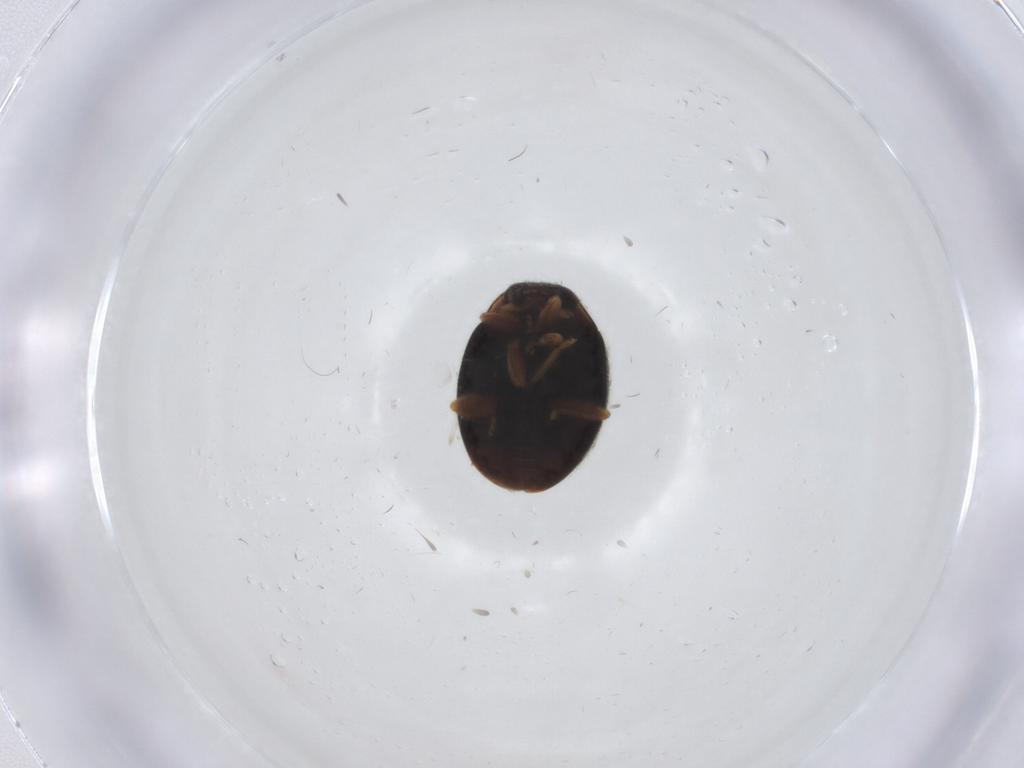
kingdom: Animalia
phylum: Arthropoda
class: Insecta
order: Coleoptera
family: Coccinellidae
